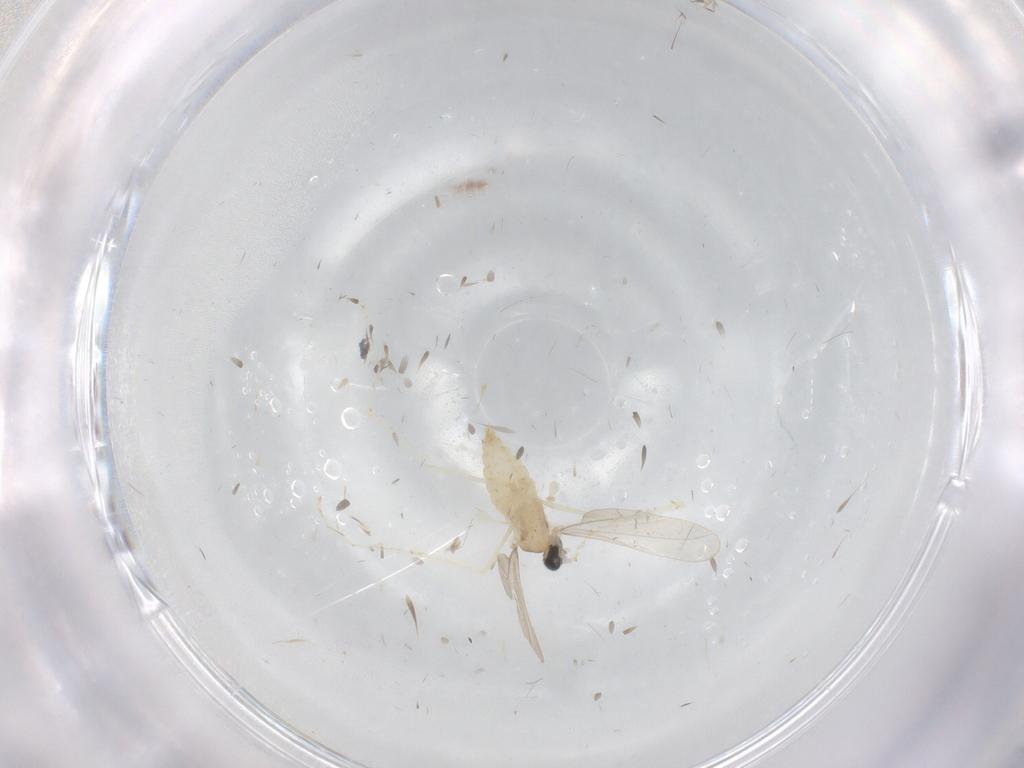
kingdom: Animalia
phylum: Arthropoda
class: Insecta
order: Diptera
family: Cecidomyiidae
